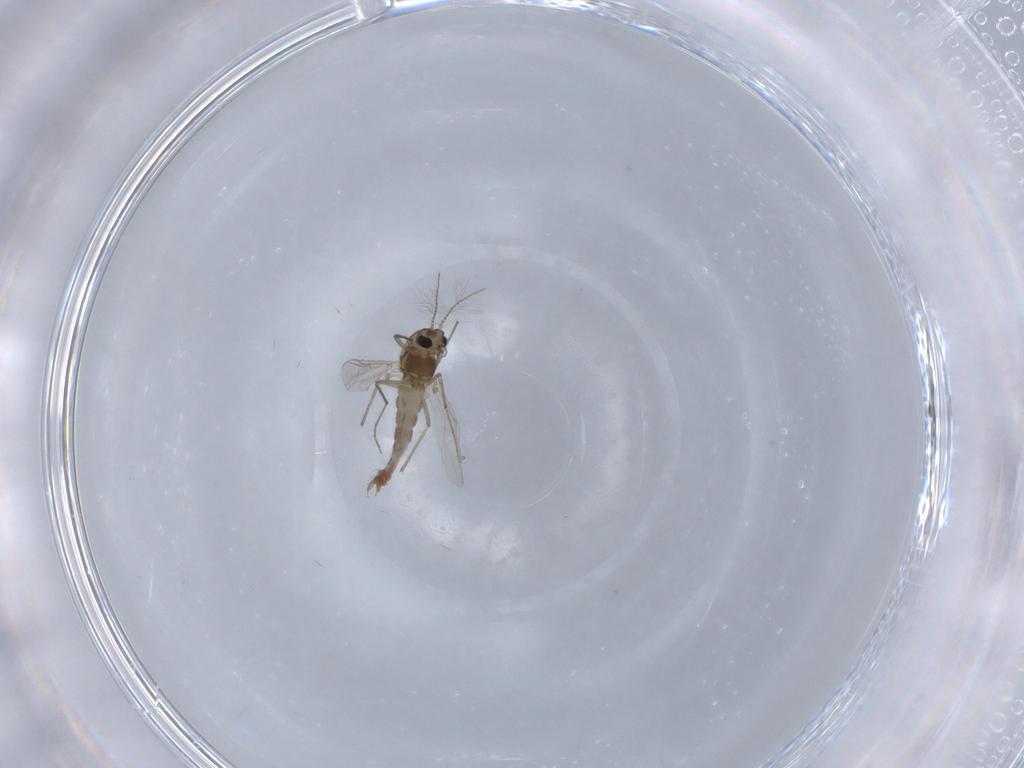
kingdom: Animalia
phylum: Arthropoda
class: Insecta
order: Diptera
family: Chironomidae
